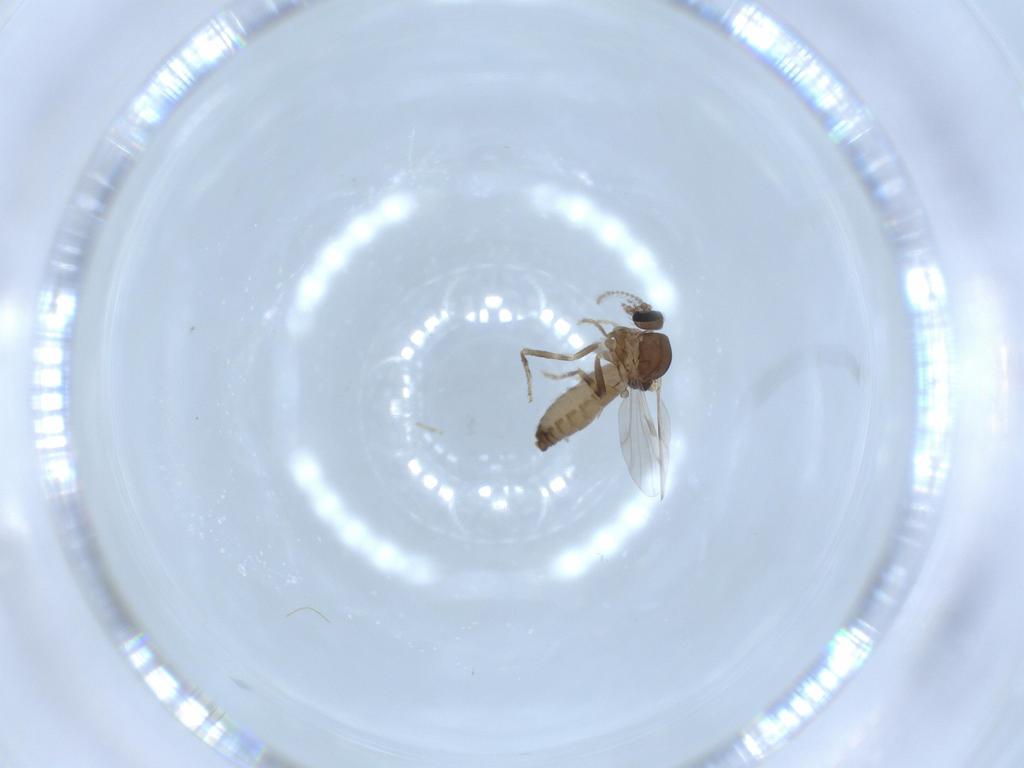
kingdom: Animalia
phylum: Arthropoda
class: Insecta
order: Diptera
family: Ceratopogonidae
